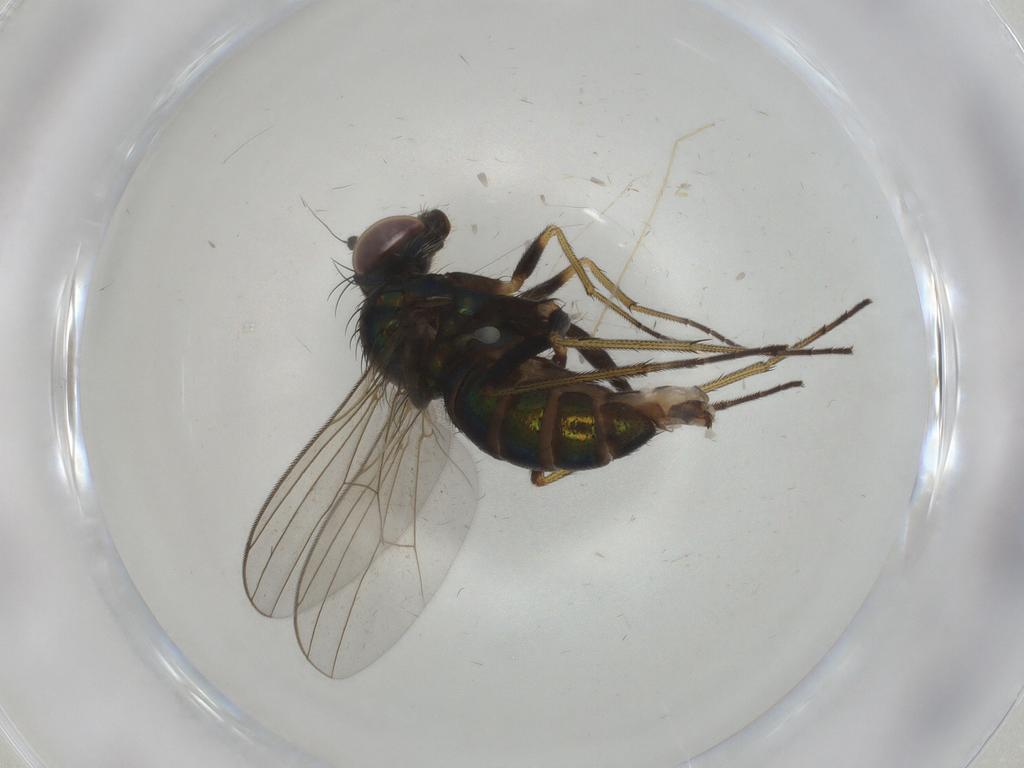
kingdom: Animalia
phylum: Arthropoda
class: Insecta
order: Diptera
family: Dolichopodidae
